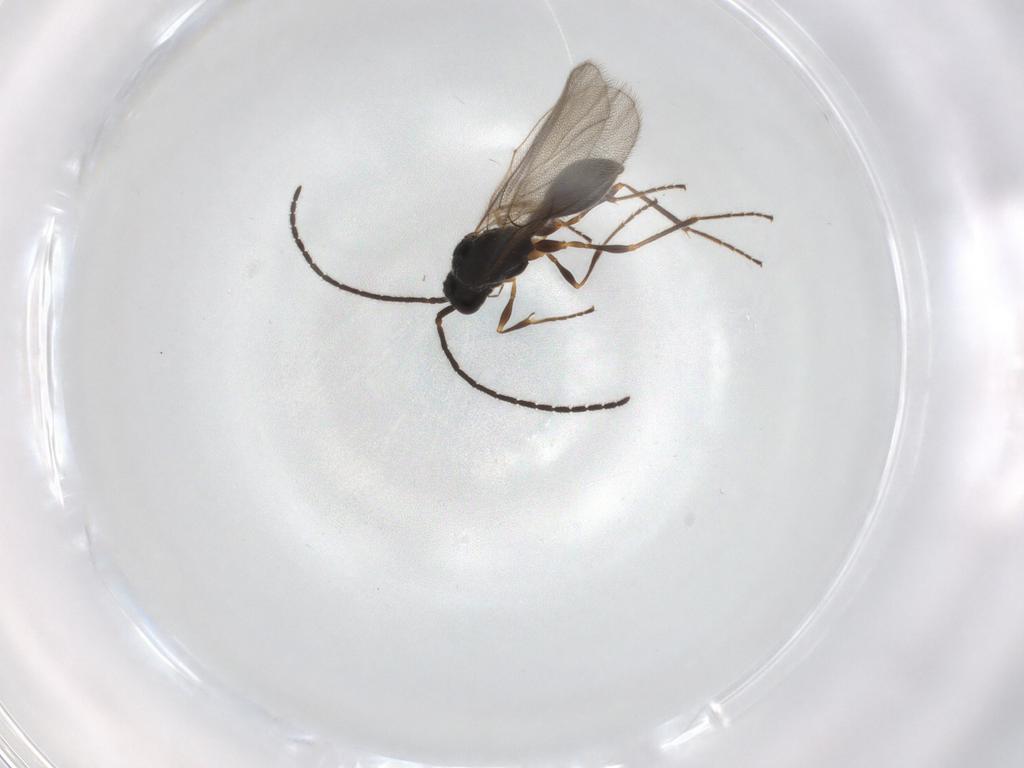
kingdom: Animalia
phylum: Arthropoda
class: Insecta
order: Hymenoptera
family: Diapriidae
